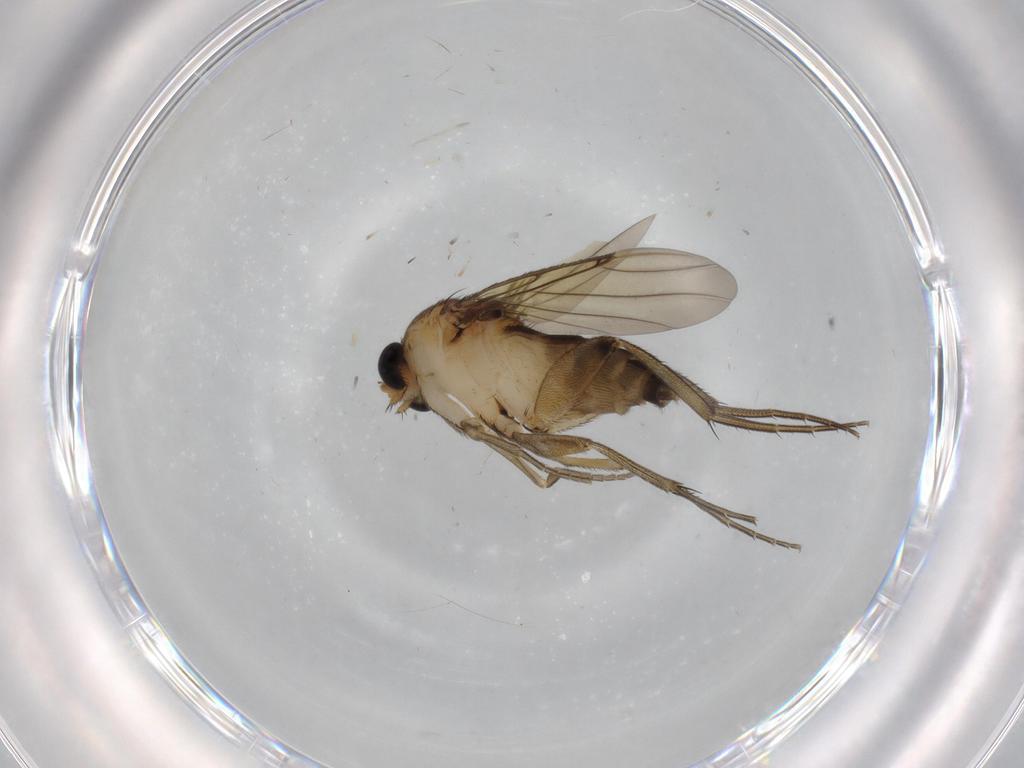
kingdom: Animalia
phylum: Arthropoda
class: Insecta
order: Diptera
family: Phoridae
